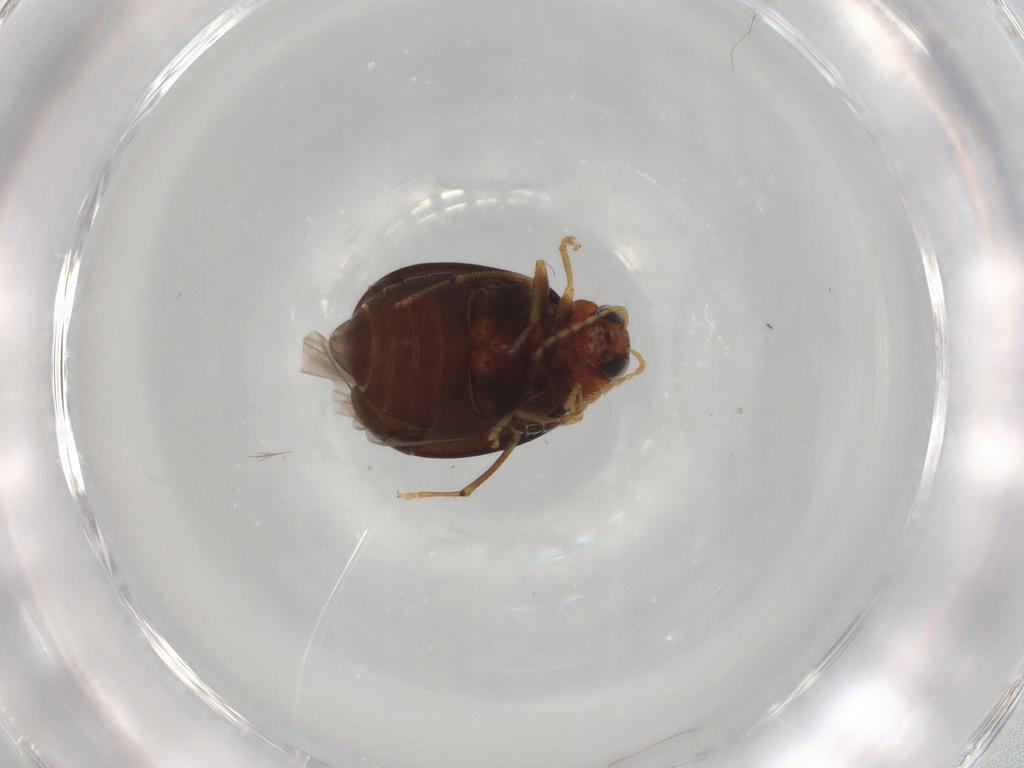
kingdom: Animalia
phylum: Arthropoda
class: Insecta
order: Coleoptera
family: Chrysomelidae
